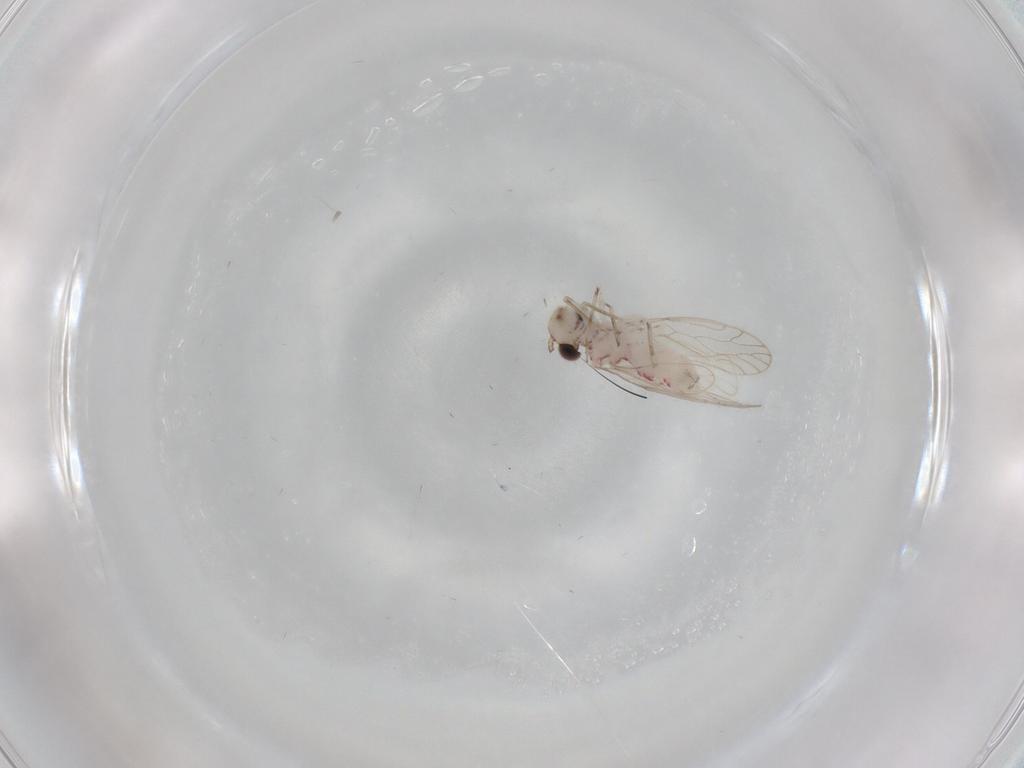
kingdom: Animalia
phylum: Arthropoda
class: Insecta
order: Psocodea
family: Caeciliusidae
